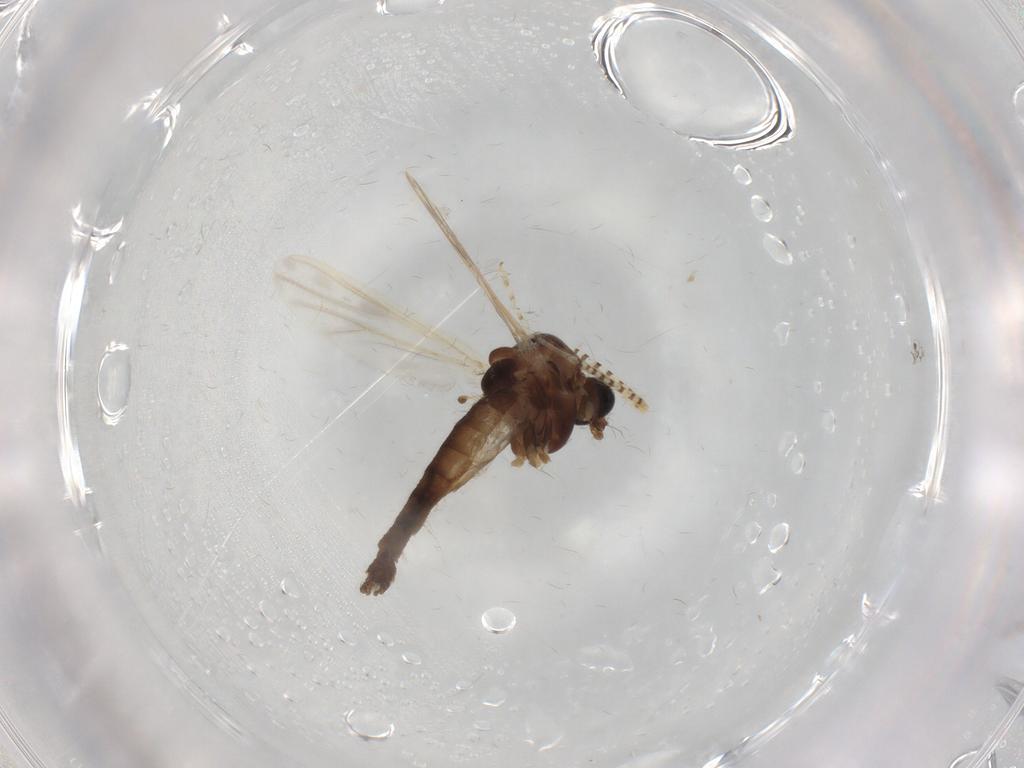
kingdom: Animalia
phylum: Arthropoda
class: Insecta
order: Diptera
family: Chironomidae
